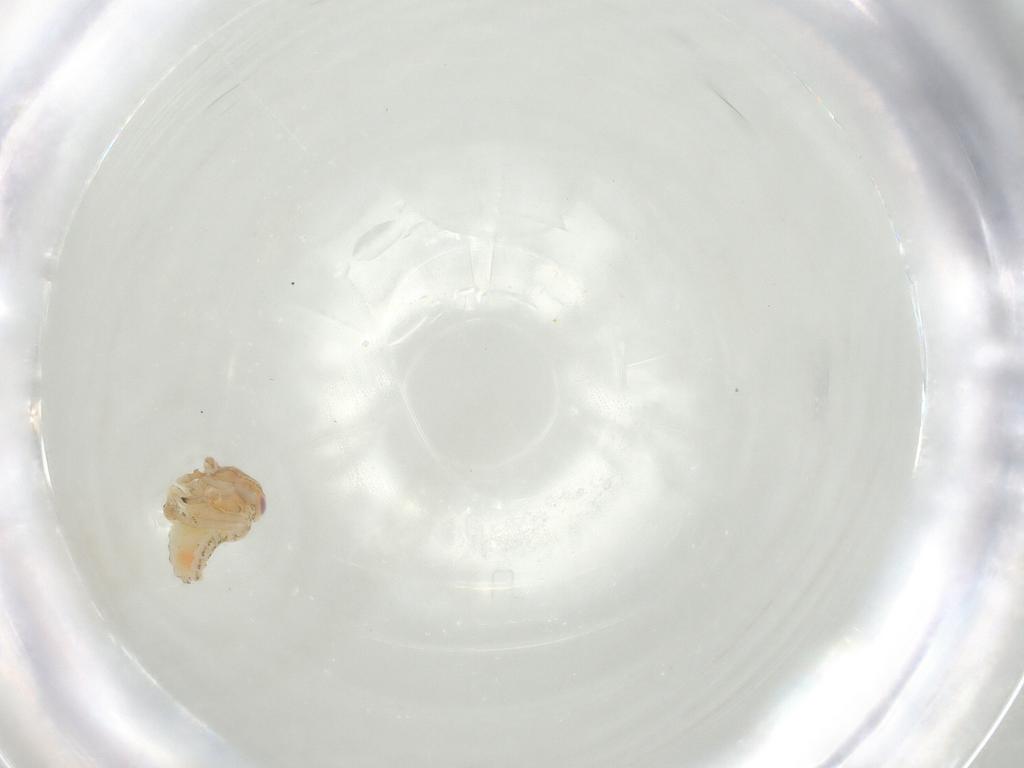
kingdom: Animalia
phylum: Arthropoda
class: Insecta
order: Hemiptera
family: Tropiduchidae
